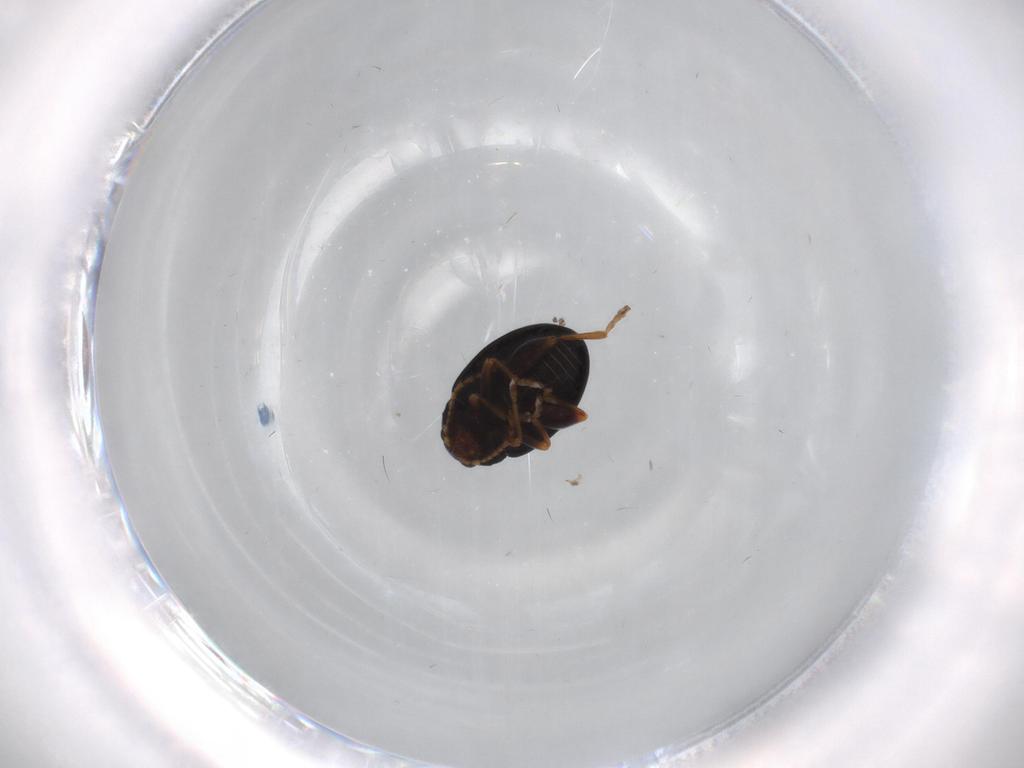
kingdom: Animalia
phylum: Arthropoda
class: Insecta
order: Coleoptera
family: Chrysomelidae
